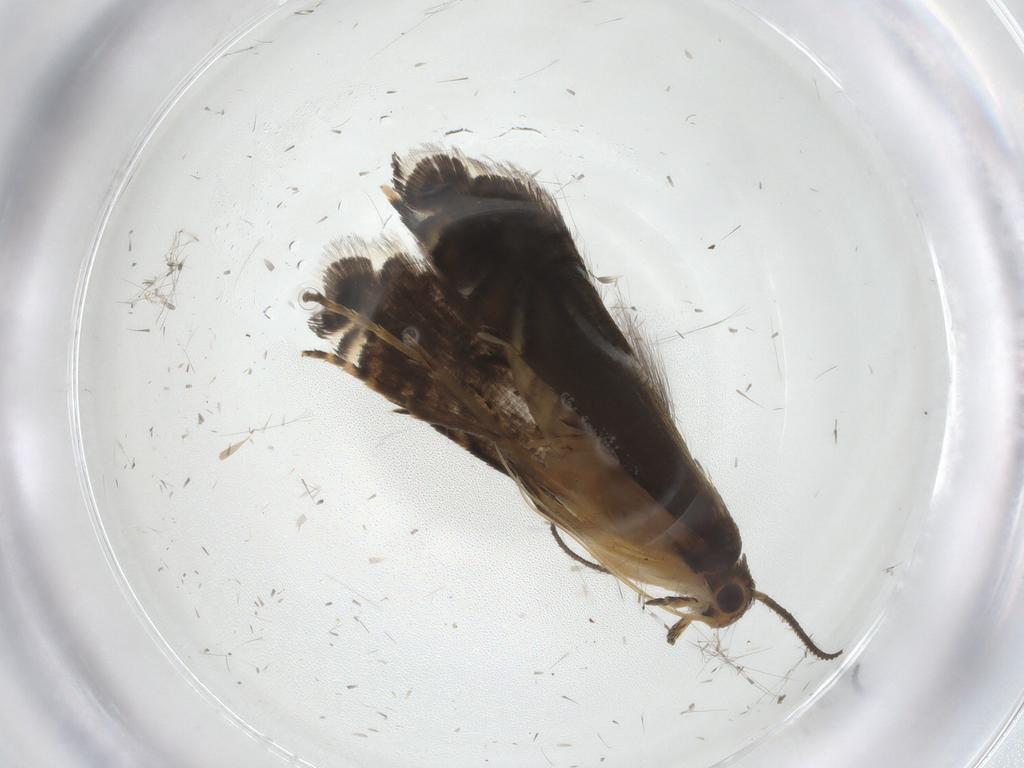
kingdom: Animalia
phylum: Arthropoda
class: Insecta
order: Lepidoptera
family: Glyphipterigidae
